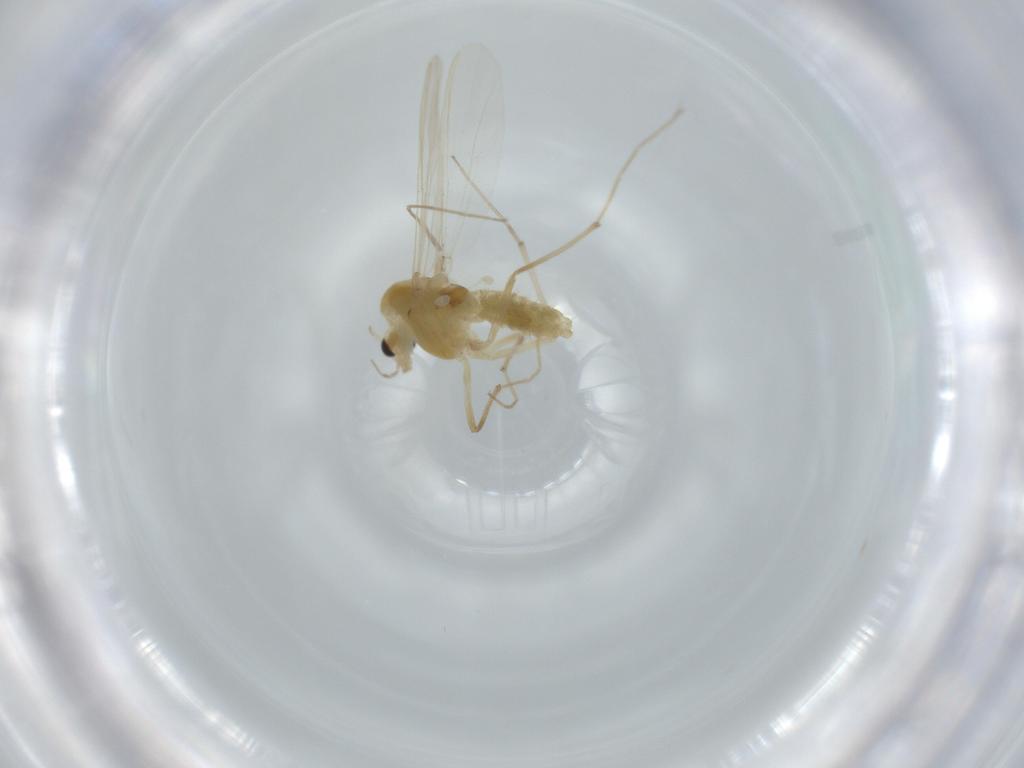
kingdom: Animalia
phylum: Arthropoda
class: Insecta
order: Diptera
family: Chironomidae
